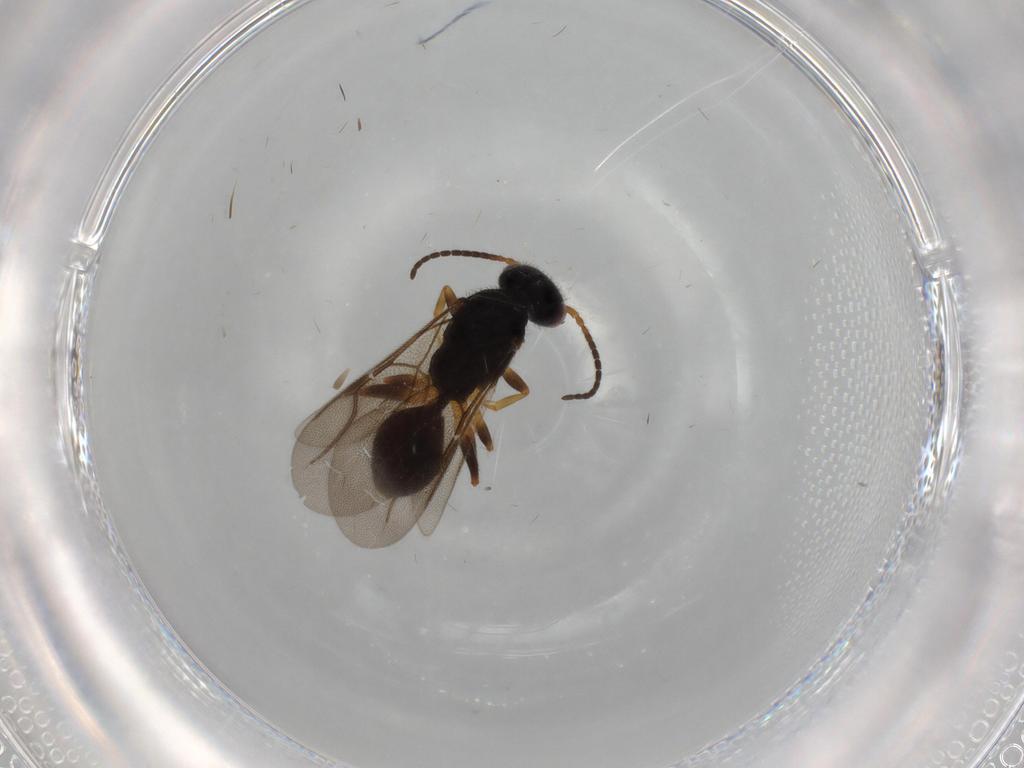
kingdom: Animalia
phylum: Arthropoda
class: Insecta
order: Hymenoptera
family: Bethylidae
